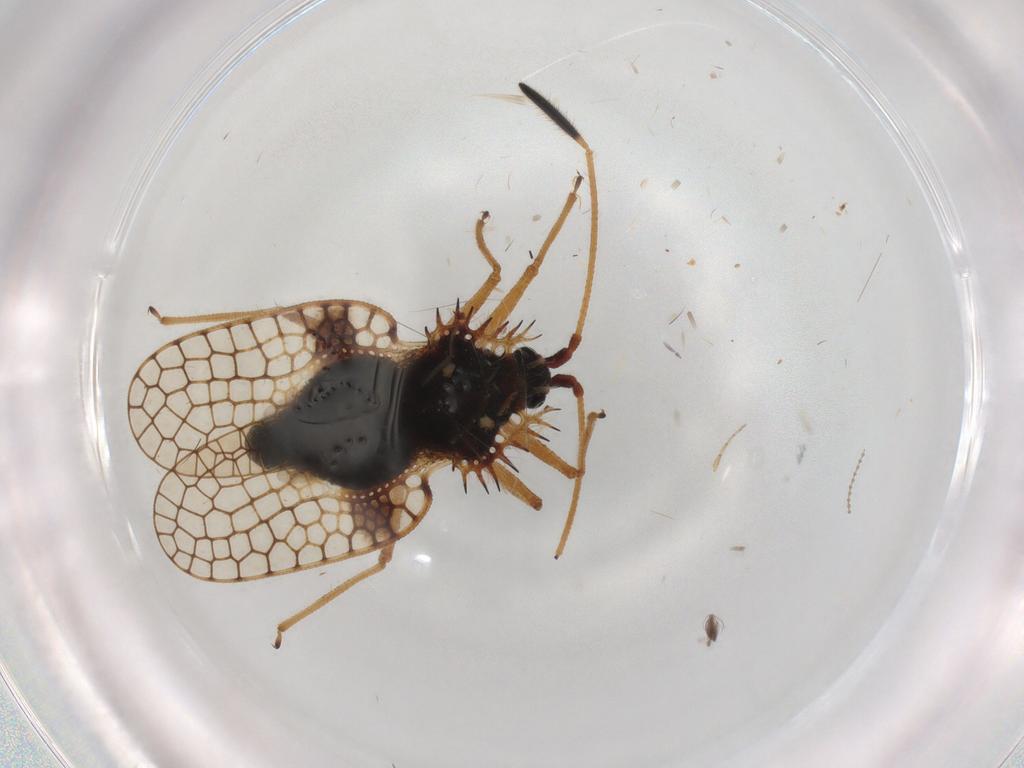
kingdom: Animalia
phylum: Arthropoda
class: Insecta
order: Hemiptera
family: Tingidae
